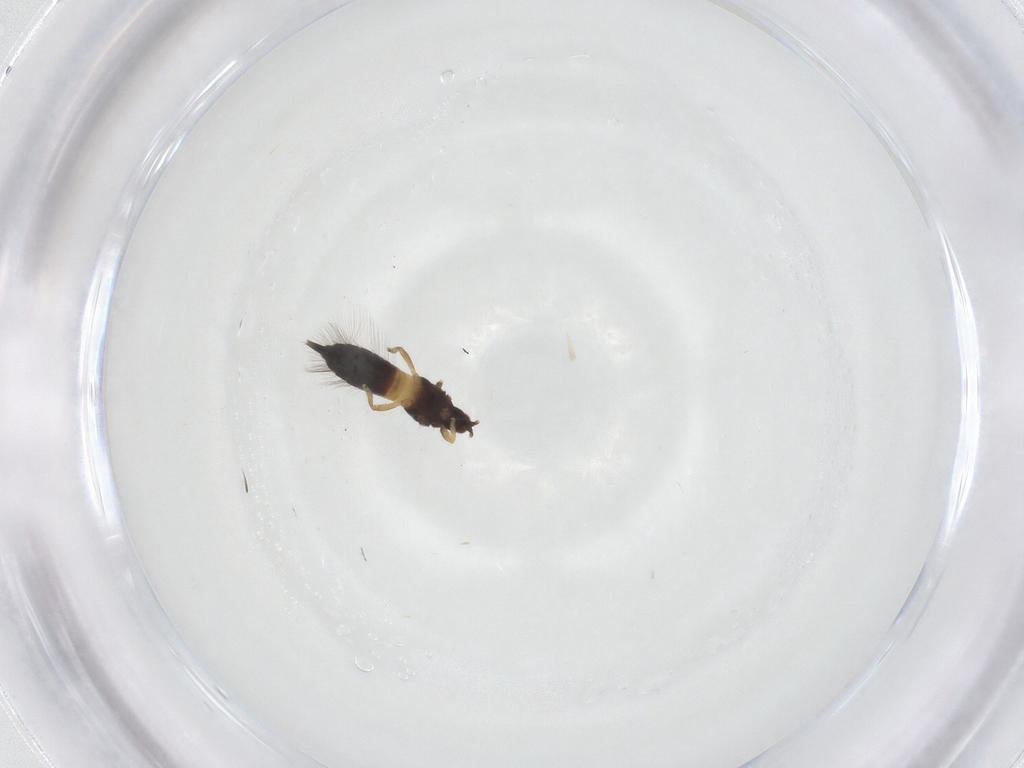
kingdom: Animalia
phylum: Arthropoda
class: Insecta
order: Thysanoptera
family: Phlaeothripidae
